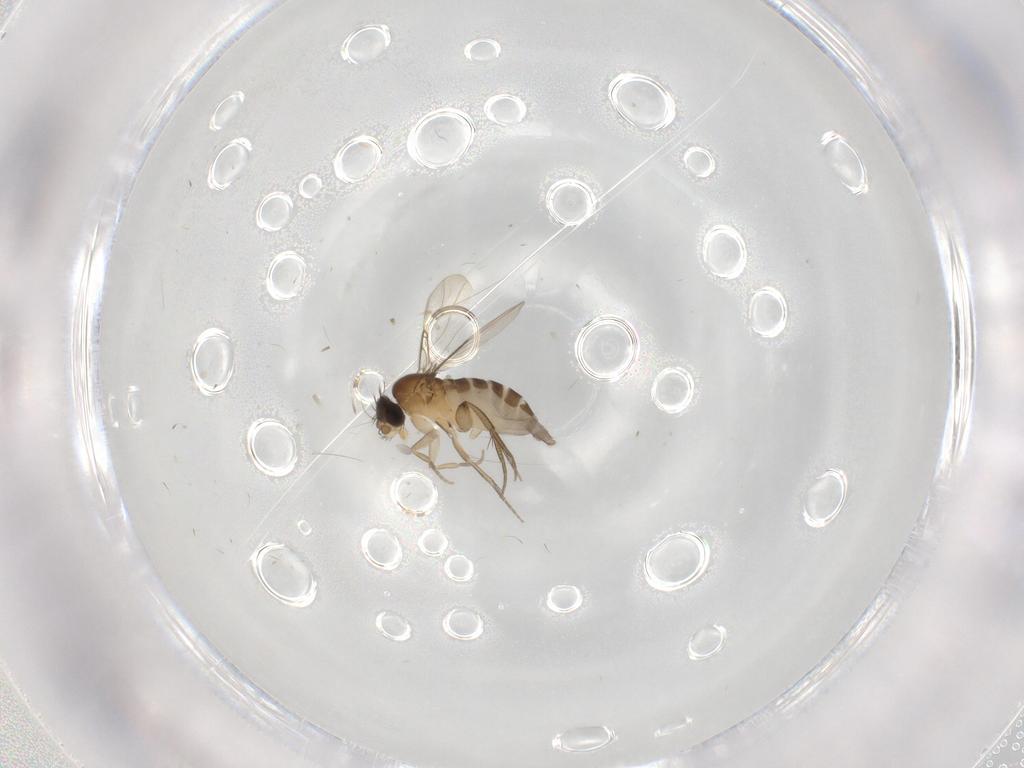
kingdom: Animalia
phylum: Arthropoda
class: Insecta
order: Diptera
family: Phoridae
